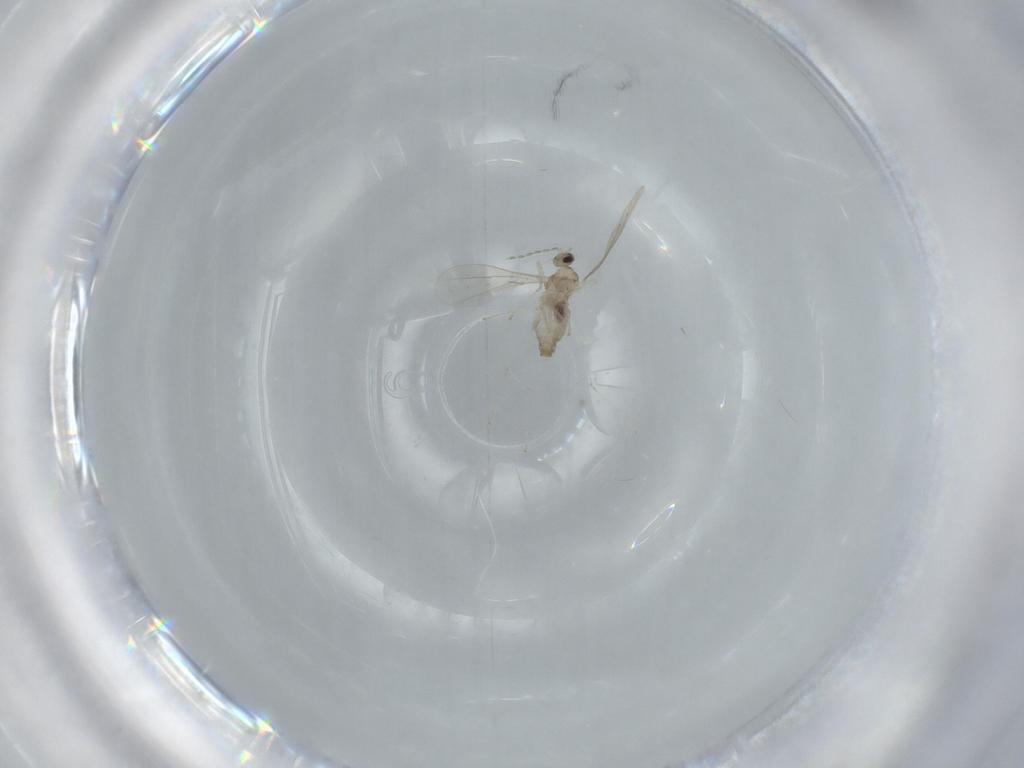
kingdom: Animalia
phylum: Arthropoda
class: Insecta
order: Diptera
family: Cecidomyiidae
